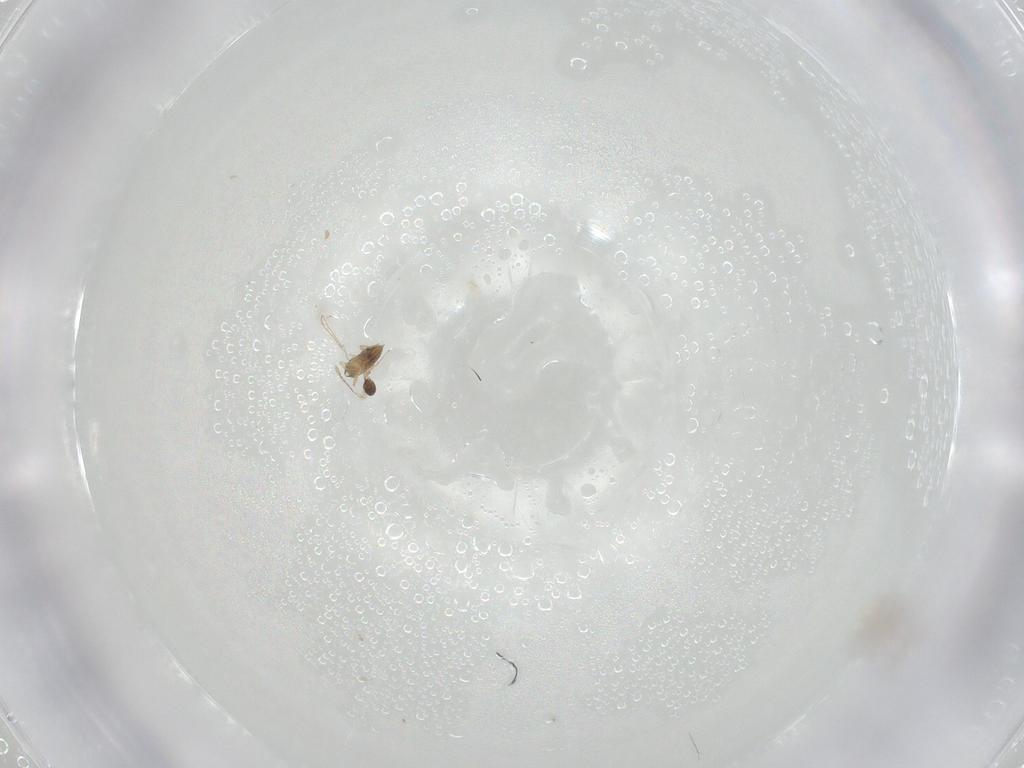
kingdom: Animalia
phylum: Arthropoda
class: Insecta
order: Hymenoptera
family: Mymaridae
